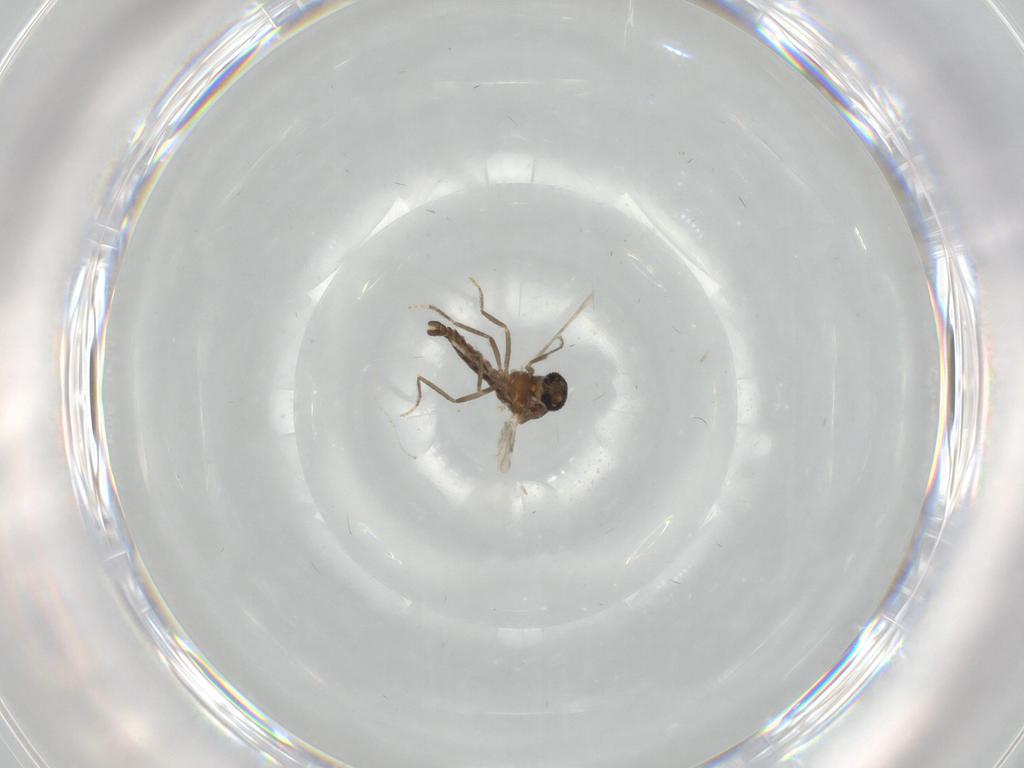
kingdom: Animalia
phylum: Arthropoda
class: Insecta
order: Diptera
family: Ceratopogonidae
